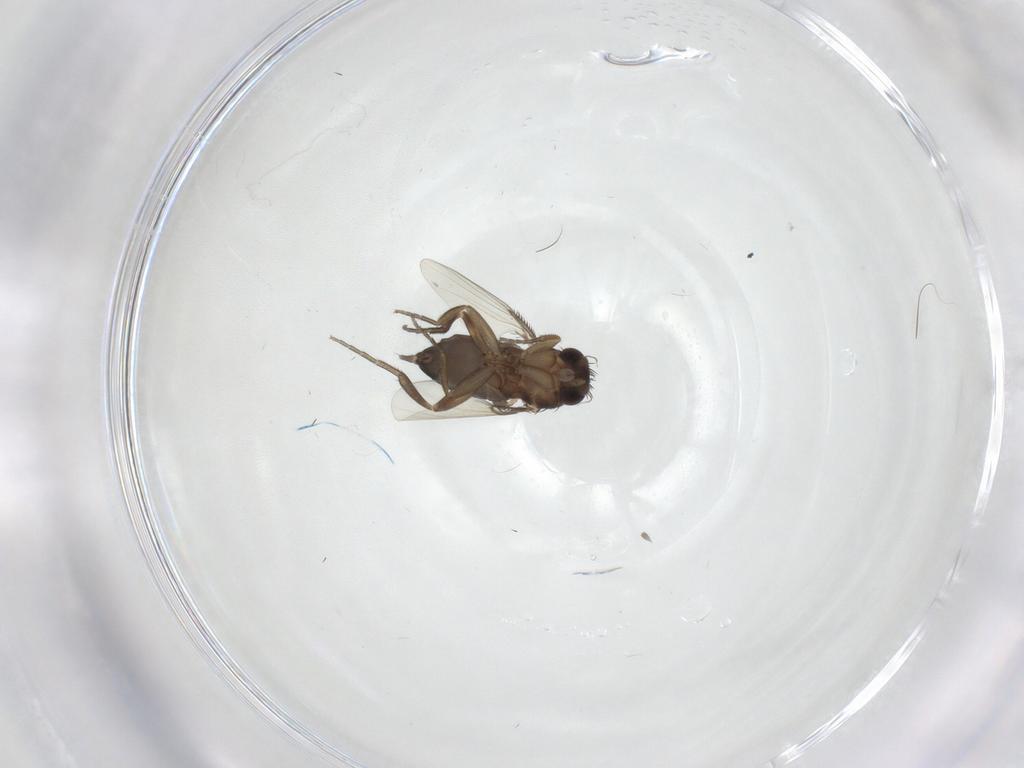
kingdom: Animalia
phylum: Arthropoda
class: Insecta
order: Diptera
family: Phoridae
